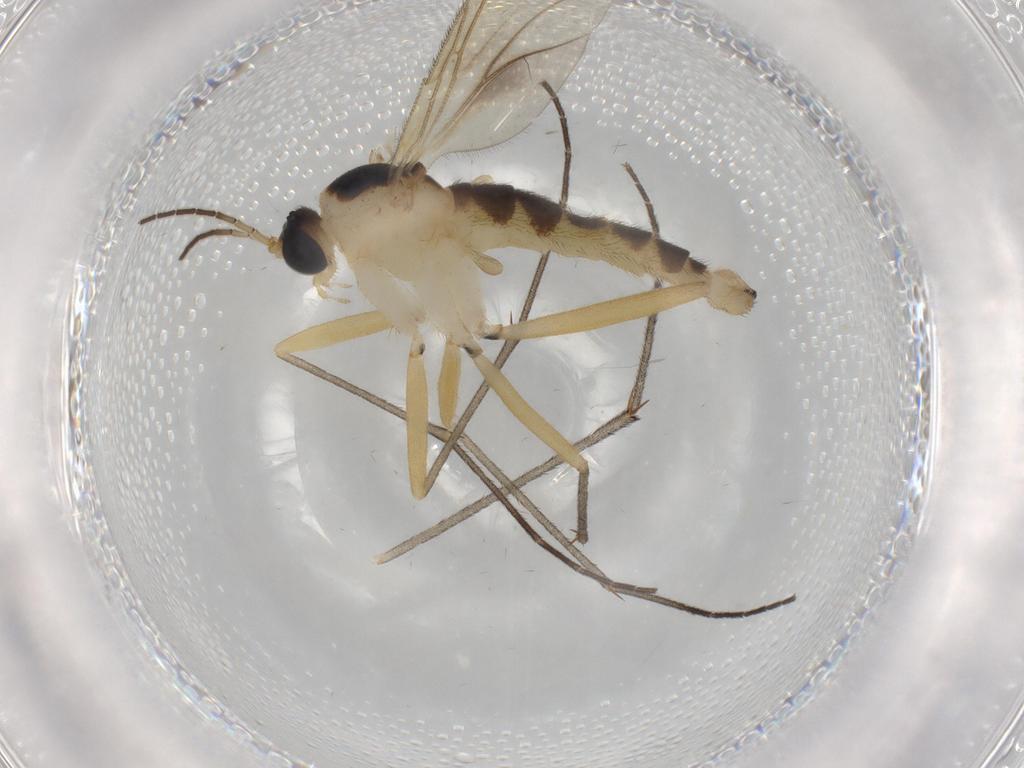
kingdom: Animalia
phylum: Arthropoda
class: Insecta
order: Diptera
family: Sciaridae
